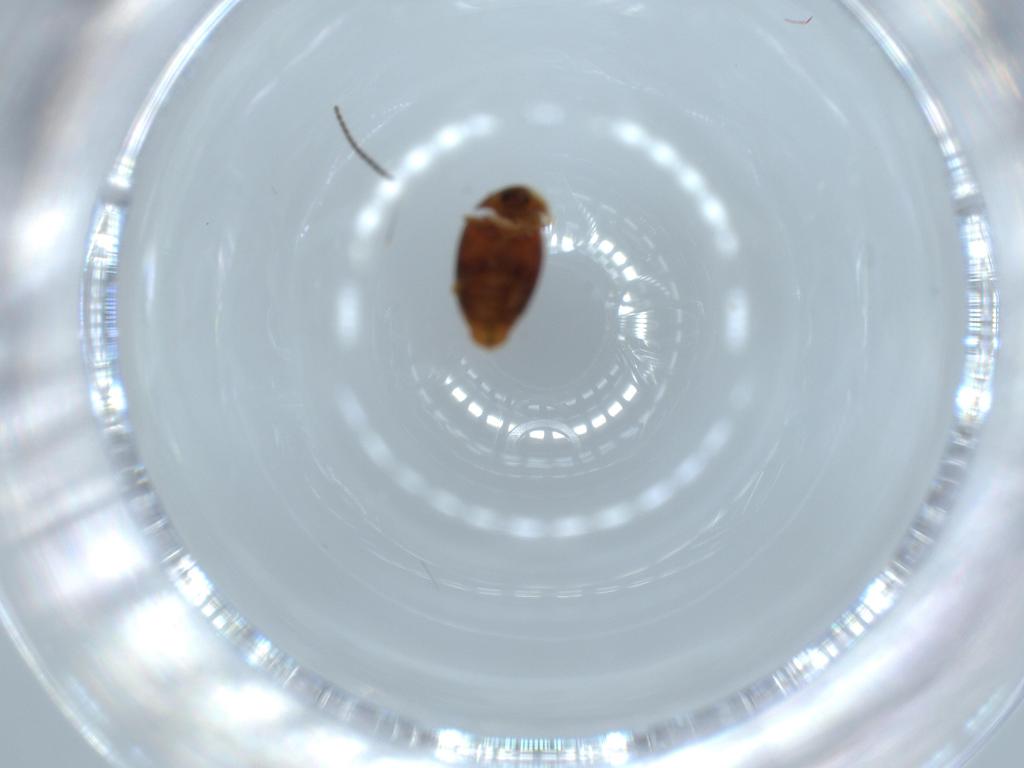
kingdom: Animalia
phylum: Arthropoda
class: Insecta
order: Coleoptera
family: Corylophidae
